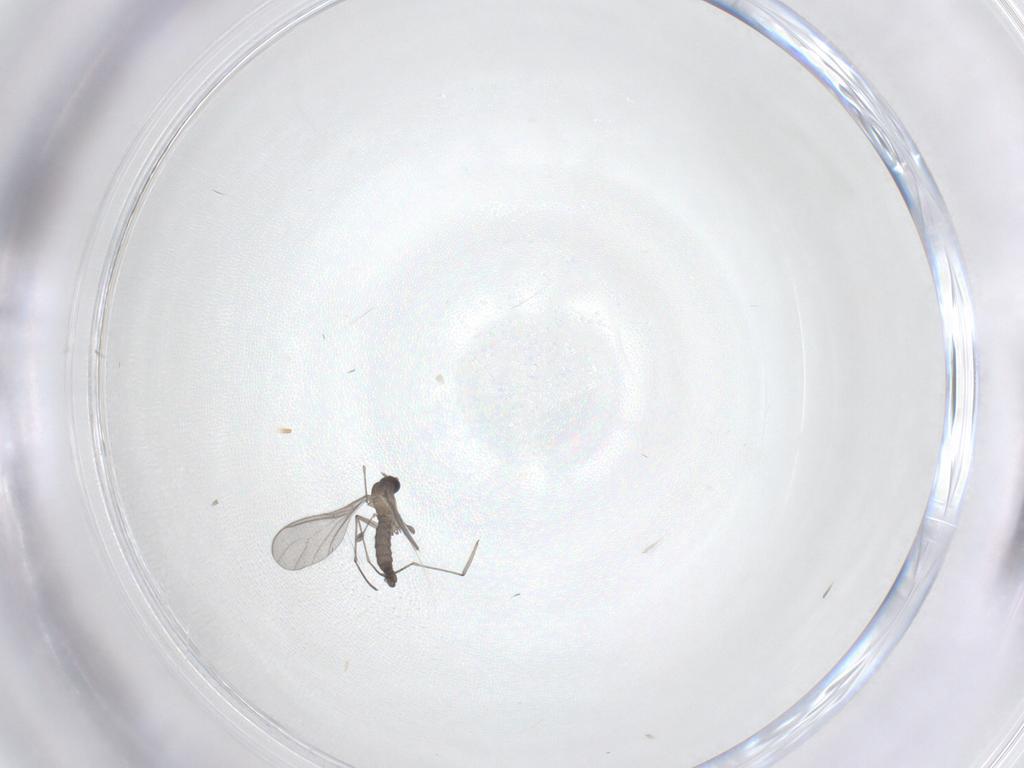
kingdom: Animalia
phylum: Arthropoda
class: Insecta
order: Diptera
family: Sciaridae
